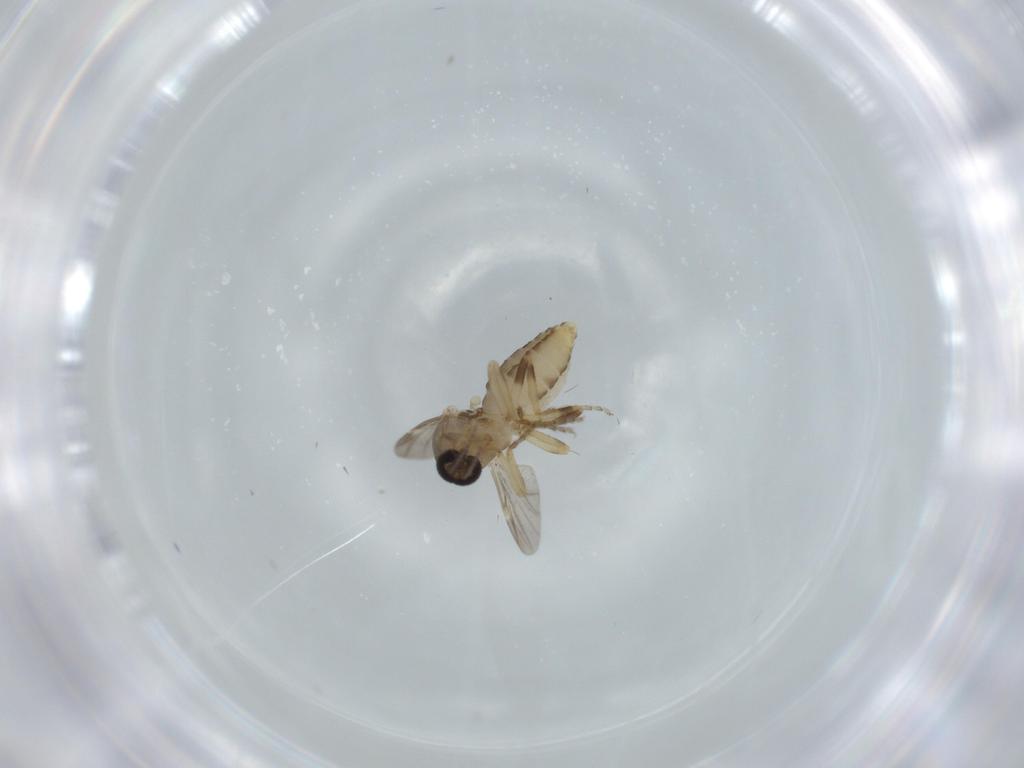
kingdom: Animalia
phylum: Arthropoda
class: Insecta
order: Diptera
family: Ceratopogonidae
